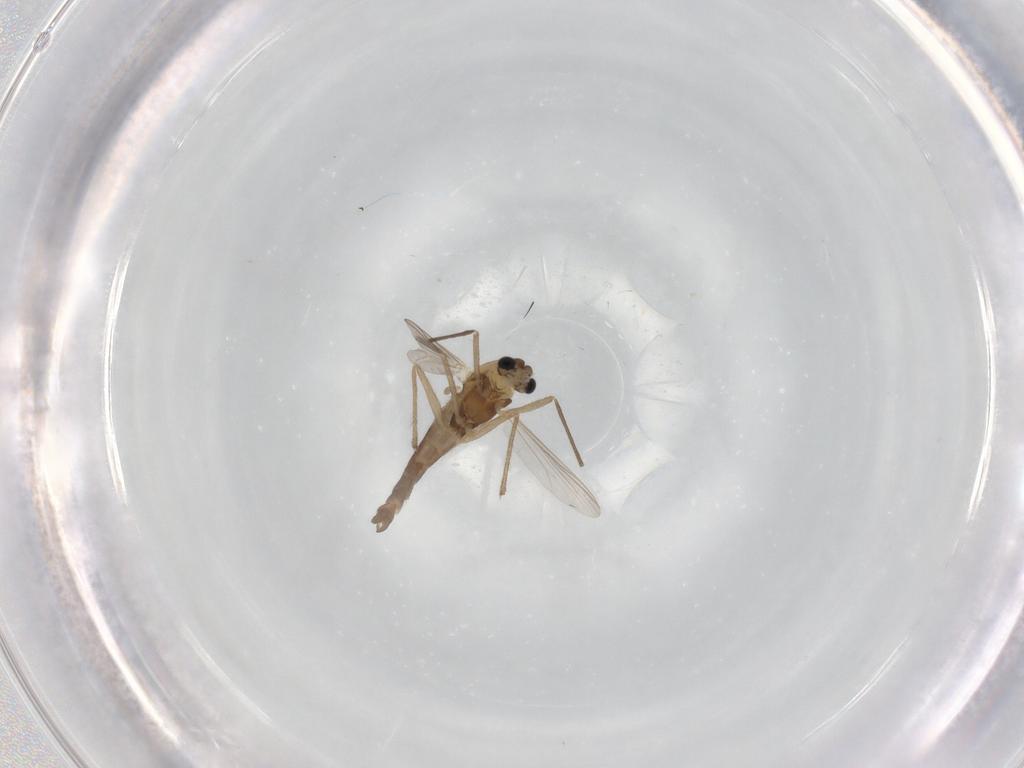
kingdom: Animalia
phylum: Arthropoda
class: Insecta
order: Diptera
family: Chironomidae
